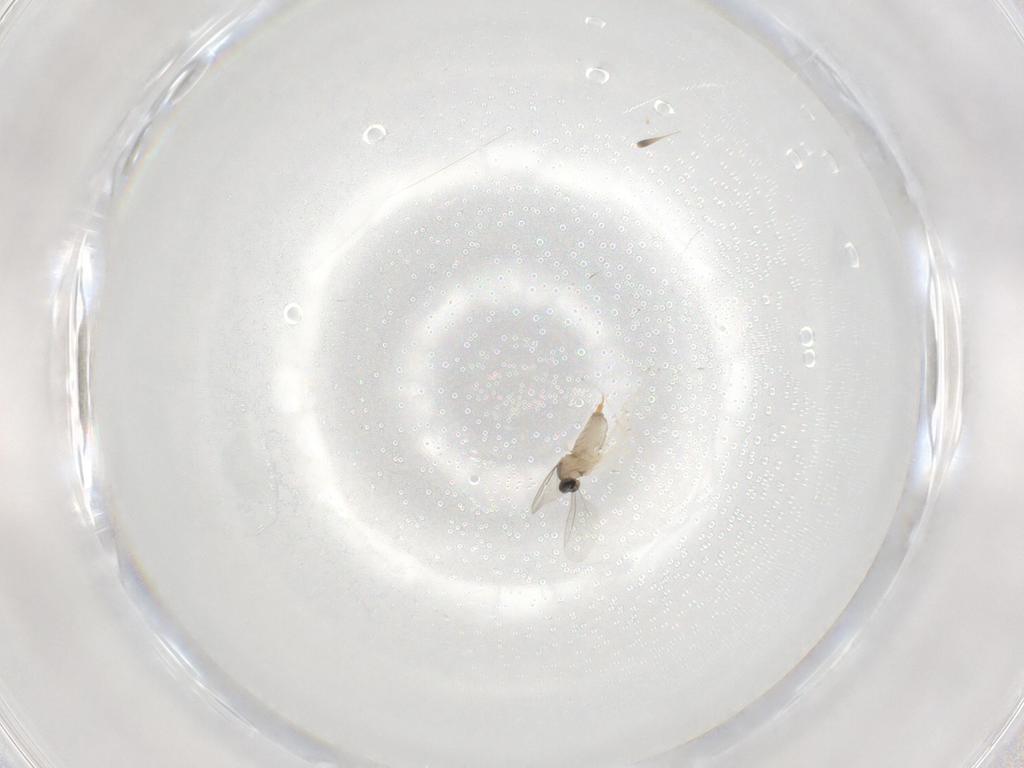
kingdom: Animalia
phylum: Arthropoda
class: Insecta
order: Diptera
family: Cecidomyiidae
